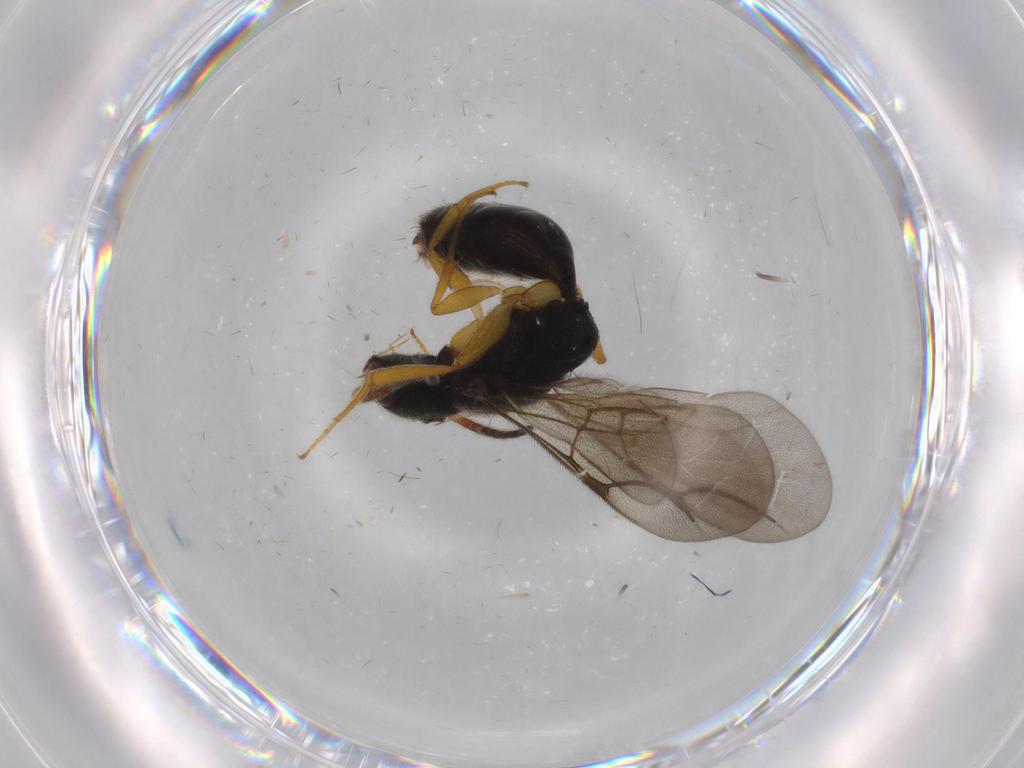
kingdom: Animalia
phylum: Arthropoda
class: Insecta
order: Hymenoptera
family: Bethylidae
